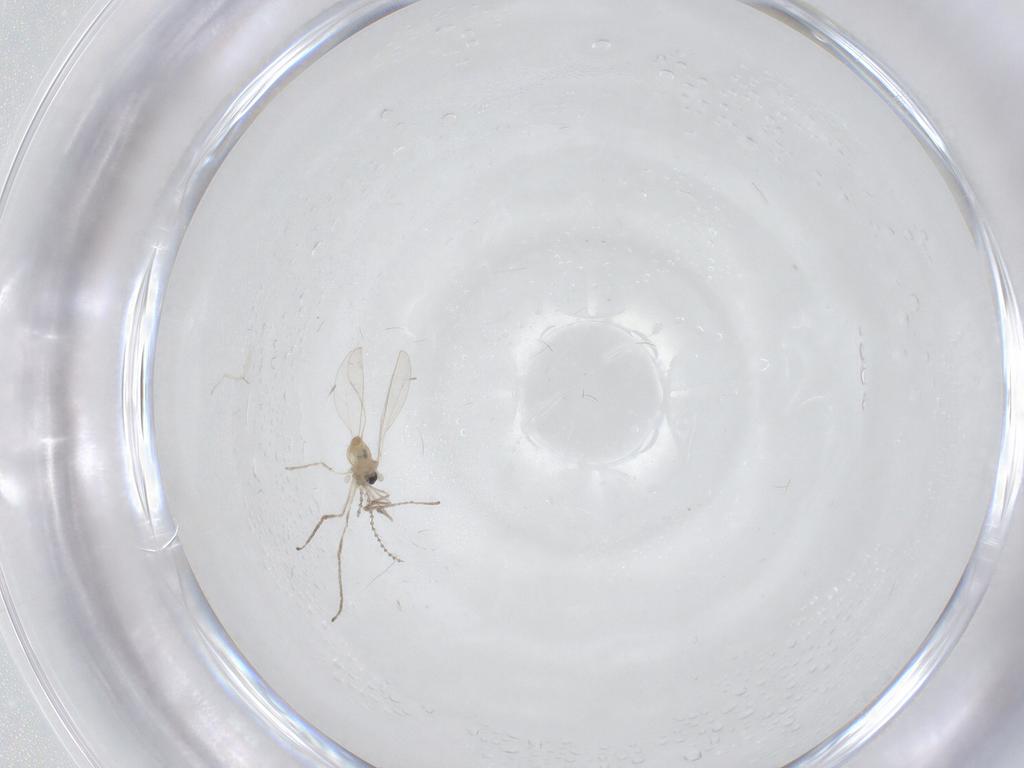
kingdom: Animalia
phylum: Arthropoda
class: Insecta
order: Diptera
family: Cecidomyiidae
